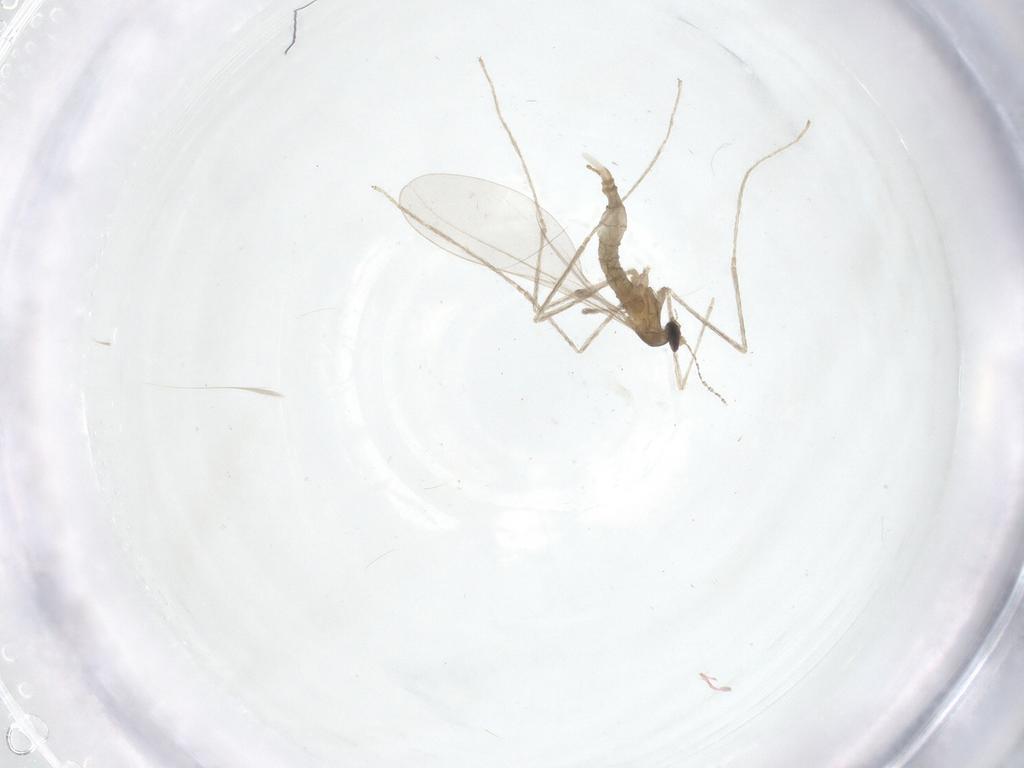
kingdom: Animalia
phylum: Arthropoda
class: Insecta
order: Diptera
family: Cecidomyiidae
